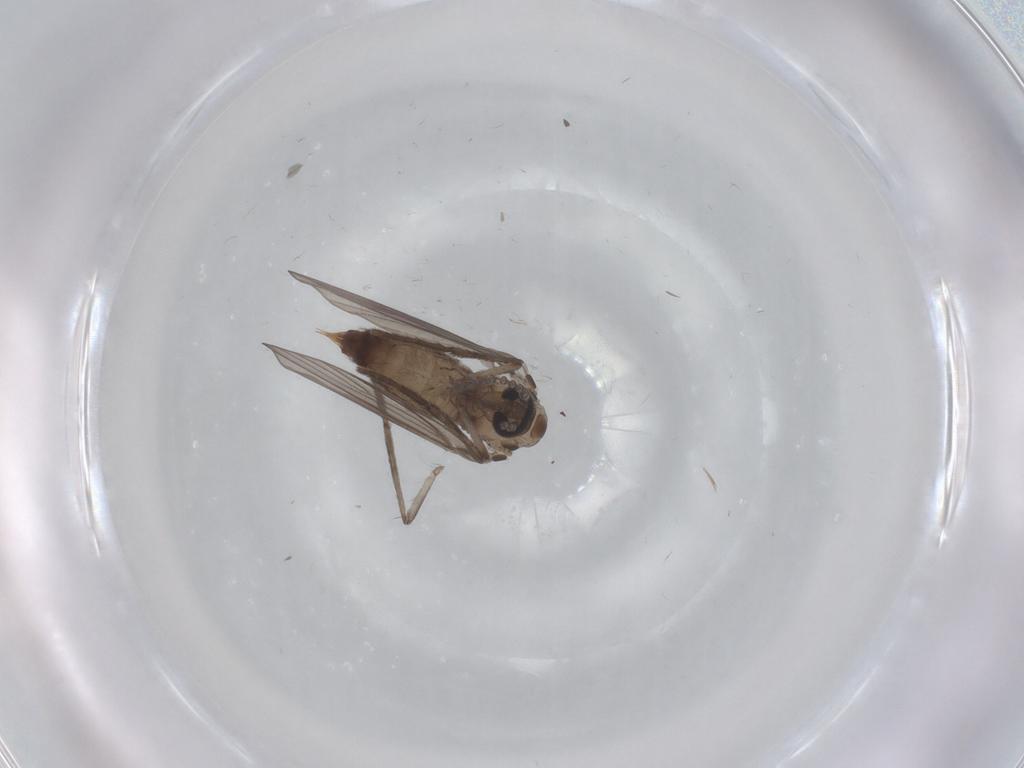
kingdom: Animalia
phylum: Arthropoda
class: Insecta
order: Diptera
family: Psychodidae
